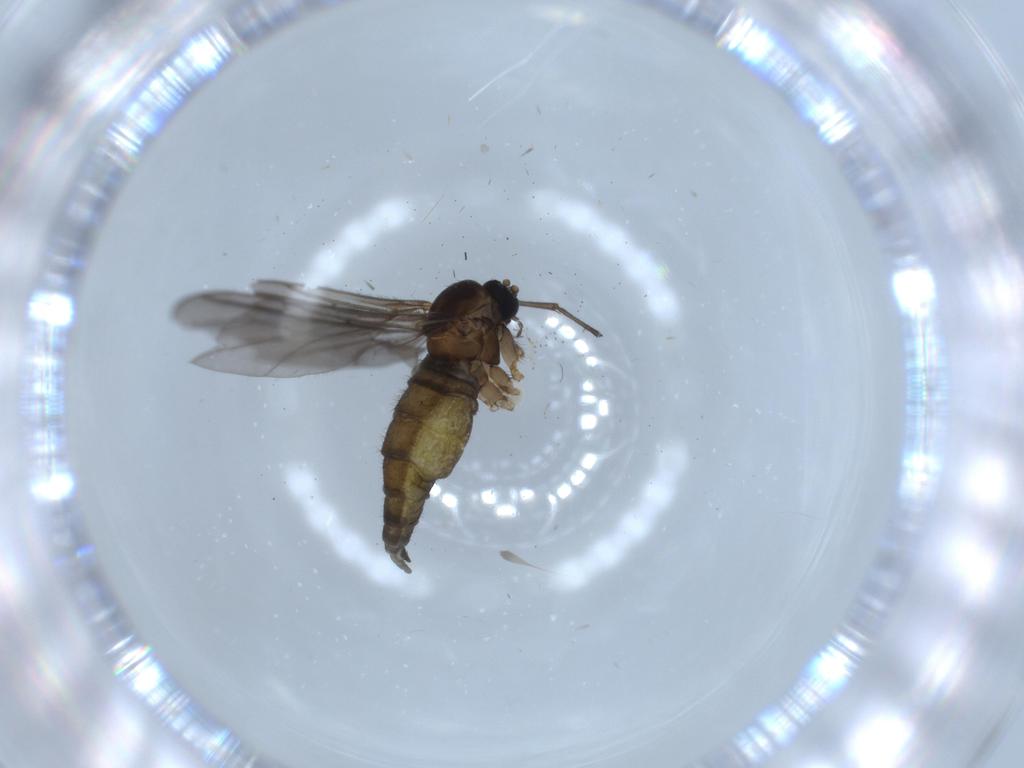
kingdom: Animalia
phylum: Arthropoda
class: Insecta
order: Diptera
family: Sciaridae
